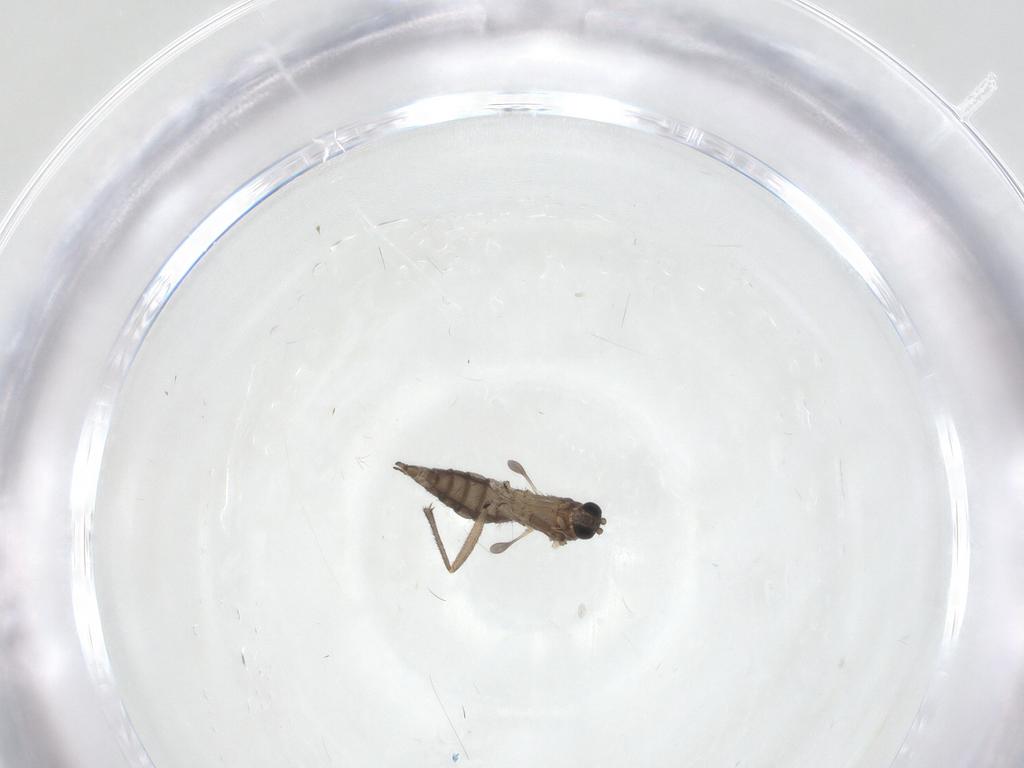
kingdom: Animalia
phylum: Arthropoda
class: Insecta
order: Diptera
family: Sciaridae
